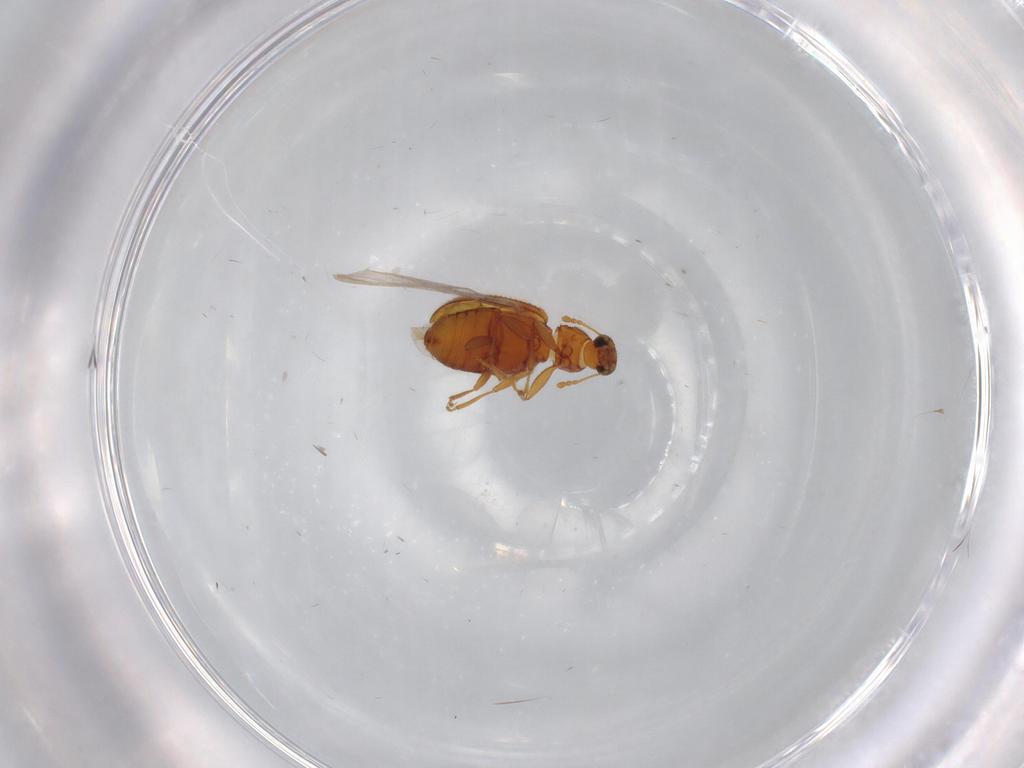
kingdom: Animalia
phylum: Arthropoda
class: Insecta
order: Coleoptera
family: Latridiidae
